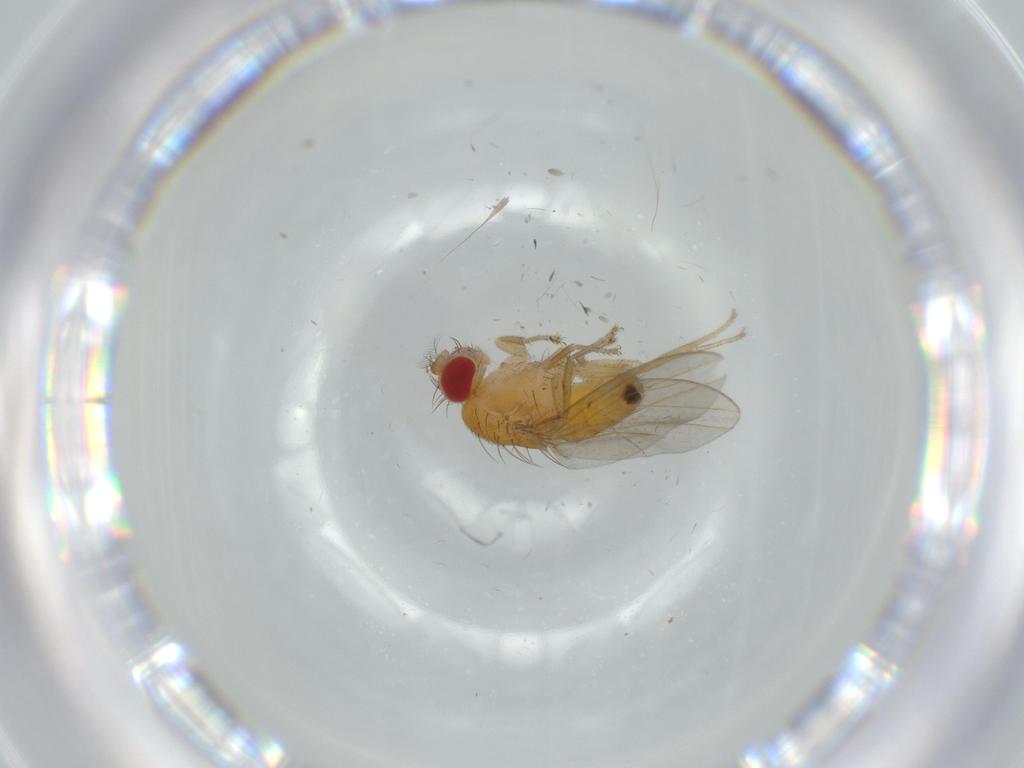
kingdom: Animalia
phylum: Arthropoda
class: Insecta
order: Diptera
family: Drosophilidae
